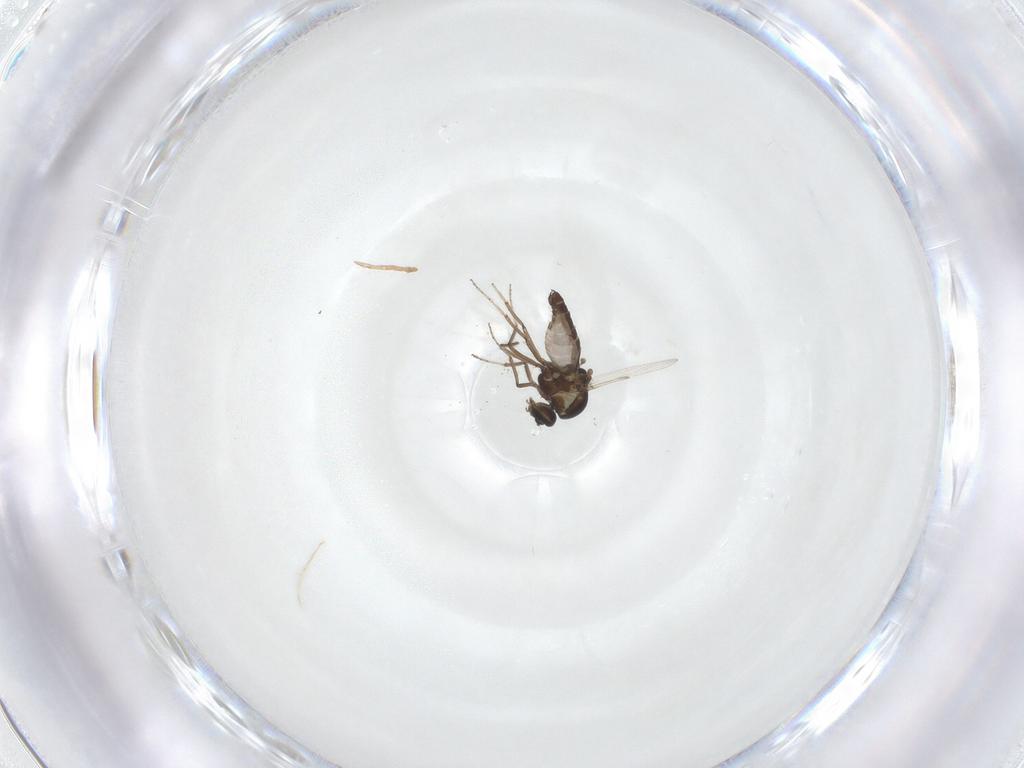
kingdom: Animalia
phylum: Arthropoda
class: Insecta
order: Diptera
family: Ceratopogonidae
